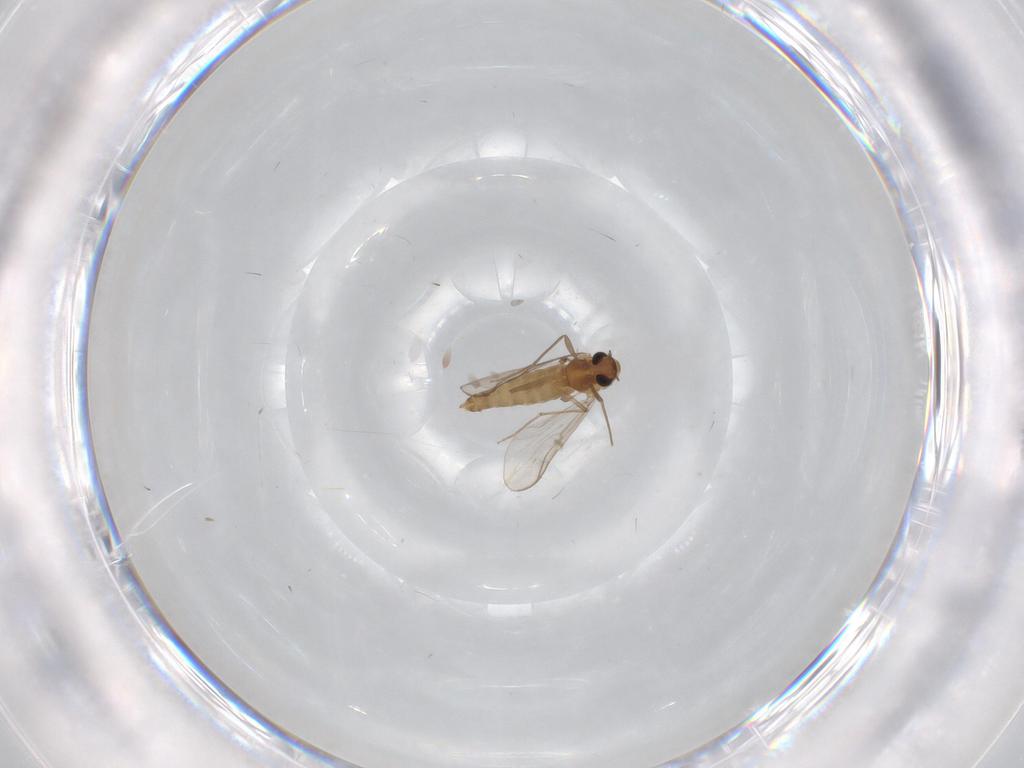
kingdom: Animalia
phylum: Arthropoda
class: Insecta
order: Diptera
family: Chironomidae
